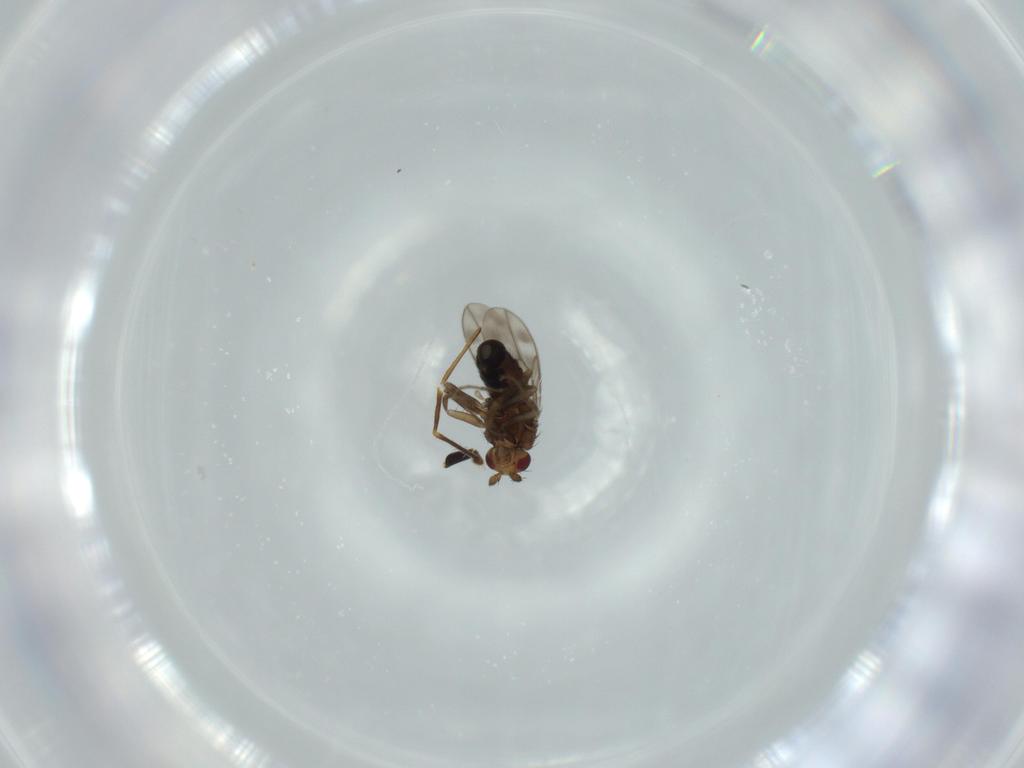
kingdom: Animalia
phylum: Arthropoda
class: Insecta
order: Diptera
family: Sphaeroceridae
